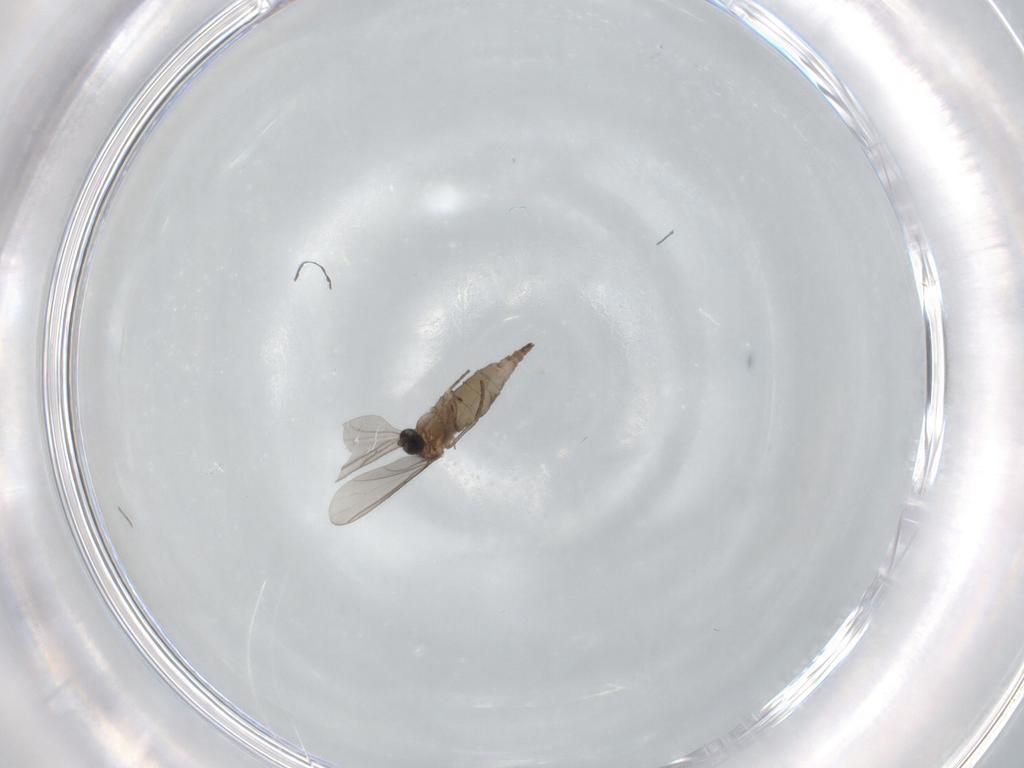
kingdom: Animalia
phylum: Arthropoda
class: Insecta
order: Diptera
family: Sciaridae
